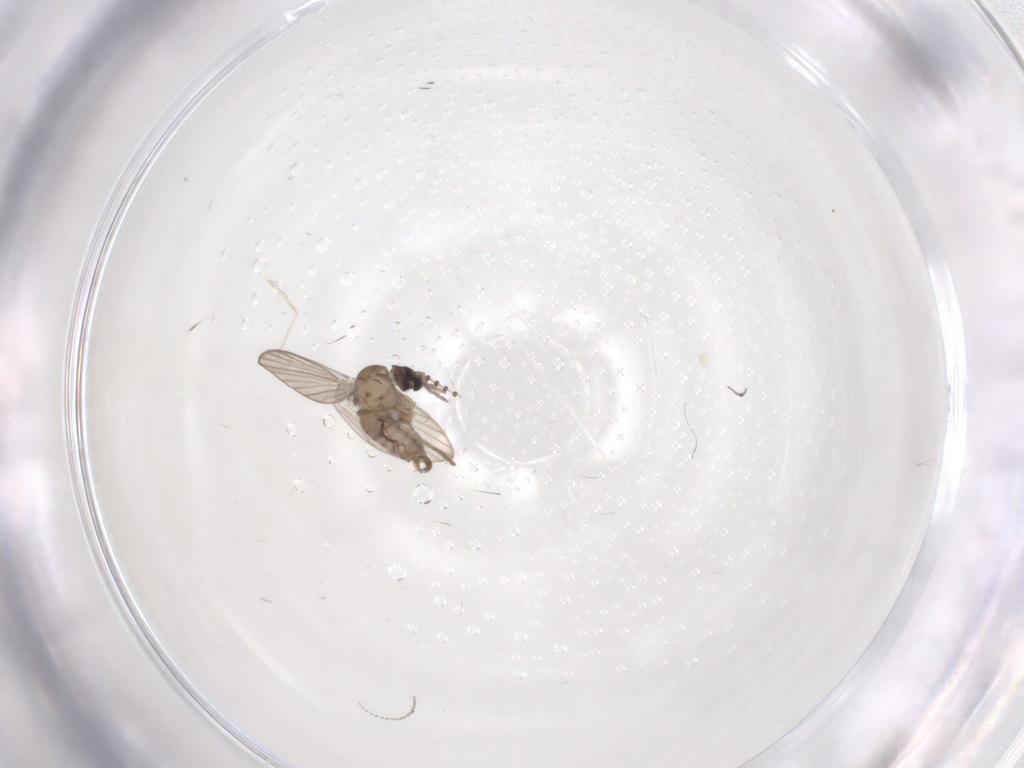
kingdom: Animalia
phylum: Arthropoda
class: Insecta
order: Diptera
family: Psychodidae
